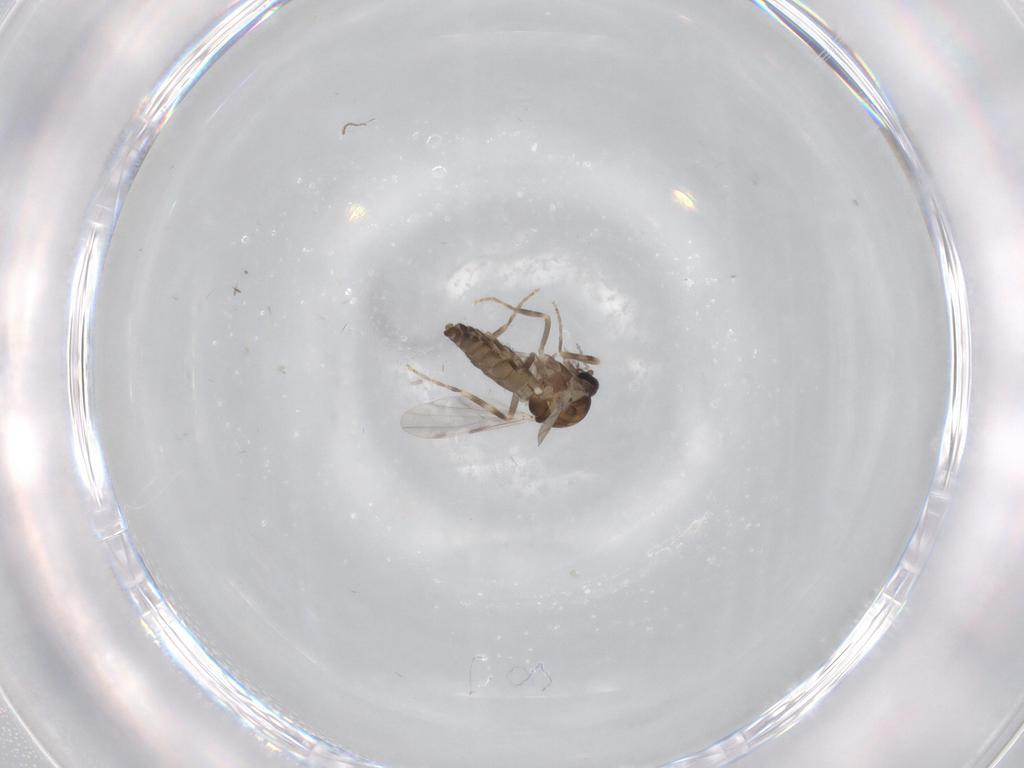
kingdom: Animalia
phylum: Arthropoda
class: Insecta
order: Diptera
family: Ceratopogonidae
